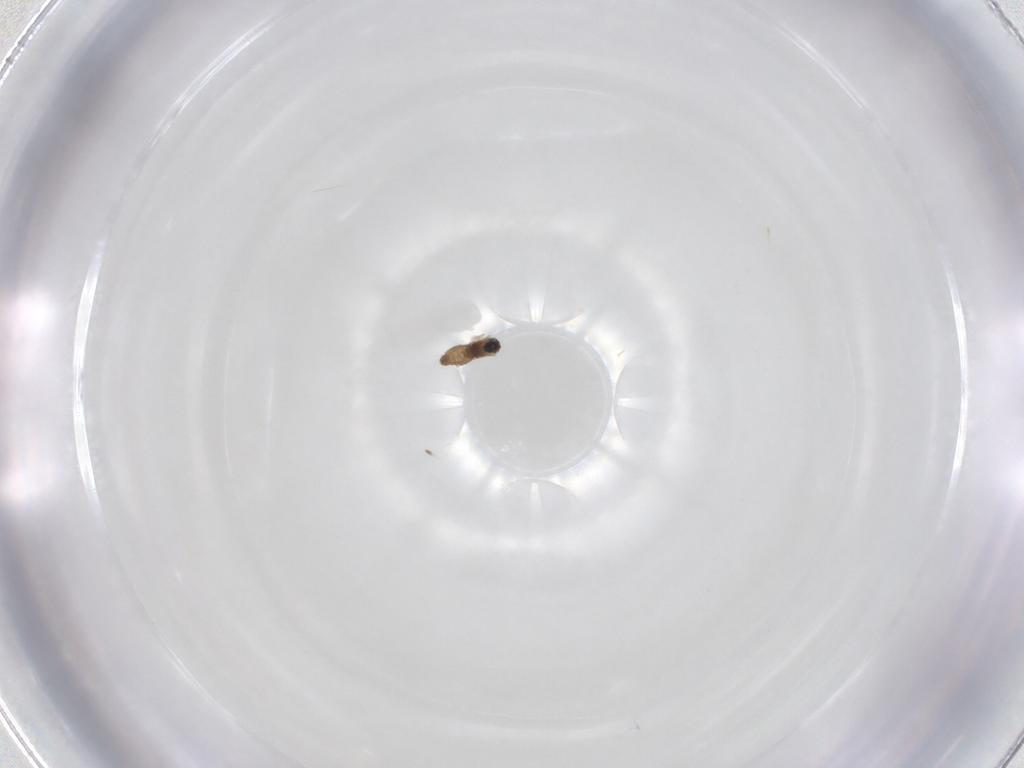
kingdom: Animalia
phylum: Arthropoda
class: Insecta
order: Diptera
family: Cecidomyiidae
